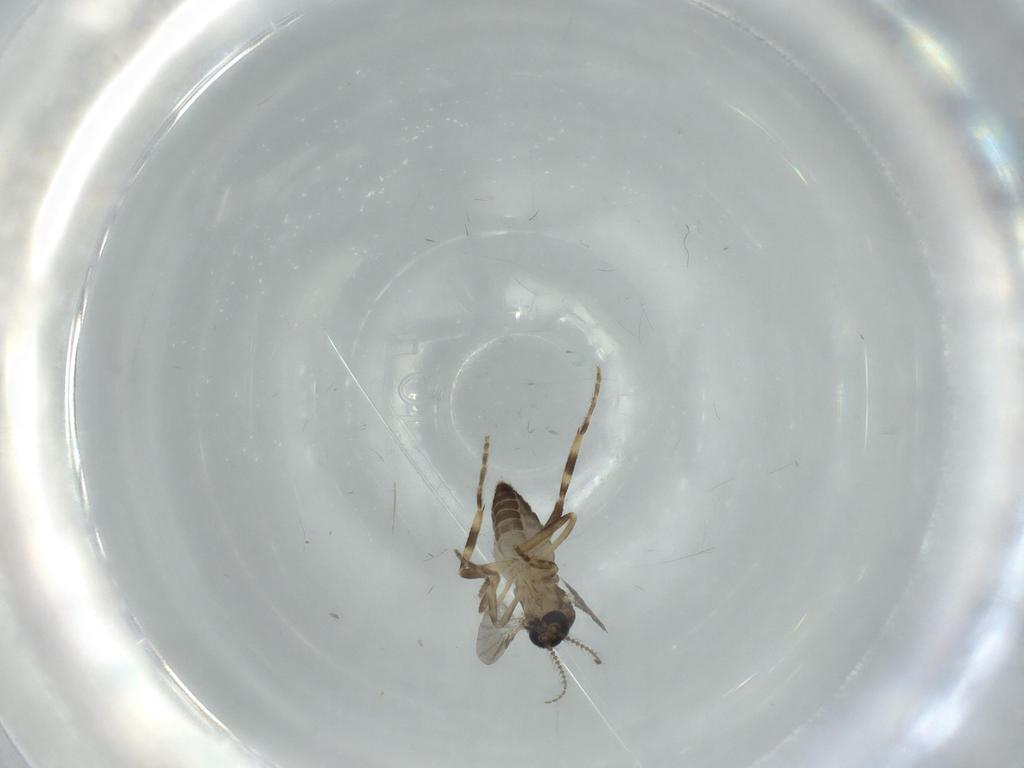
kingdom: Animalia
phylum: Arthropoda
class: Insecta
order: Diptera
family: Ceratopogonidae
